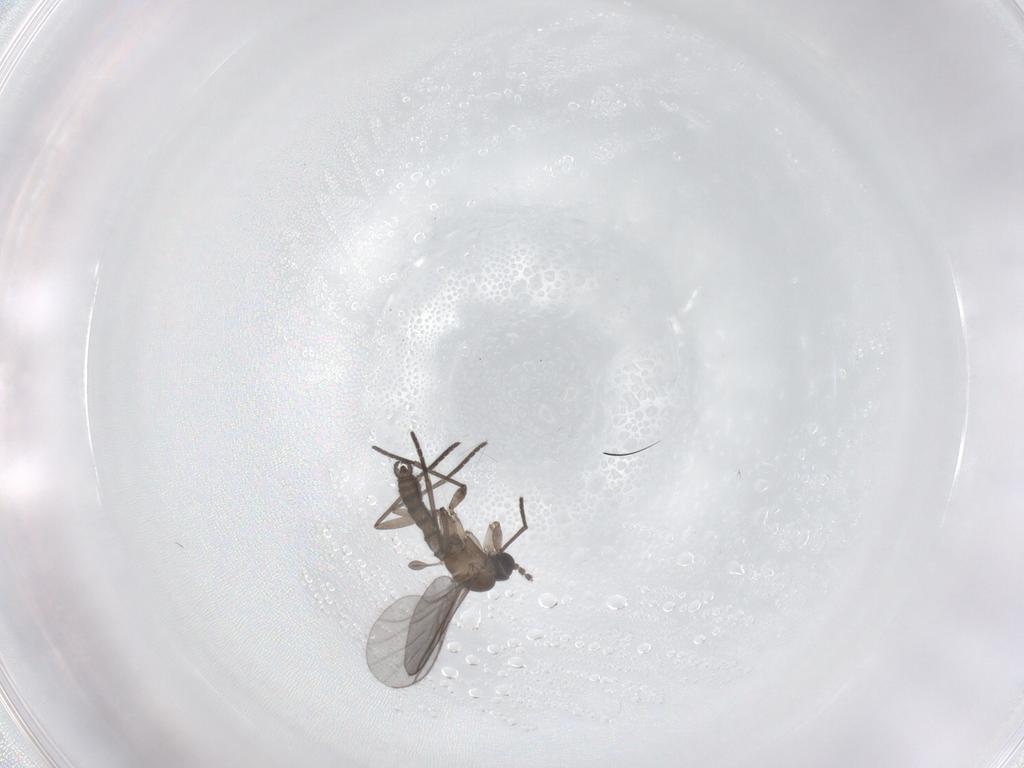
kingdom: Animalia
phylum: Arthropoda
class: Insecta
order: Diptera
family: Dolichopodidae
